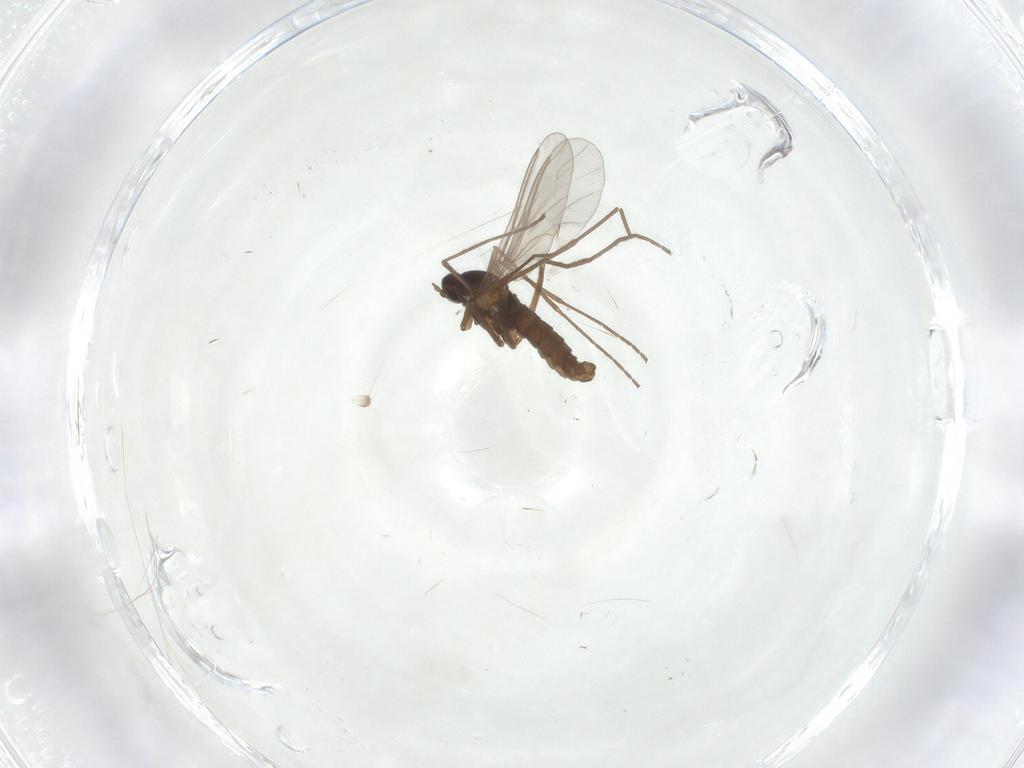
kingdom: Animalia
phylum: Arthropoda
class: Insecta
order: Diptera
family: Cecidomyiidae
